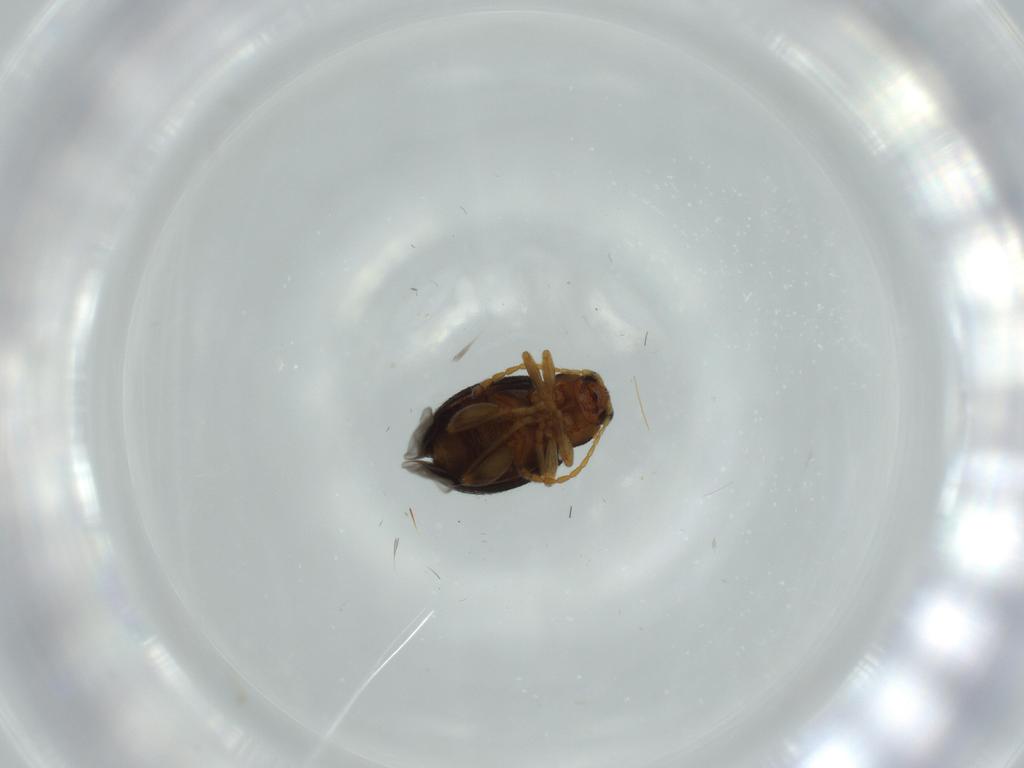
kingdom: Animalia
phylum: Arthropoda
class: Insecta
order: Coleoptera
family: Chrysomelidae
